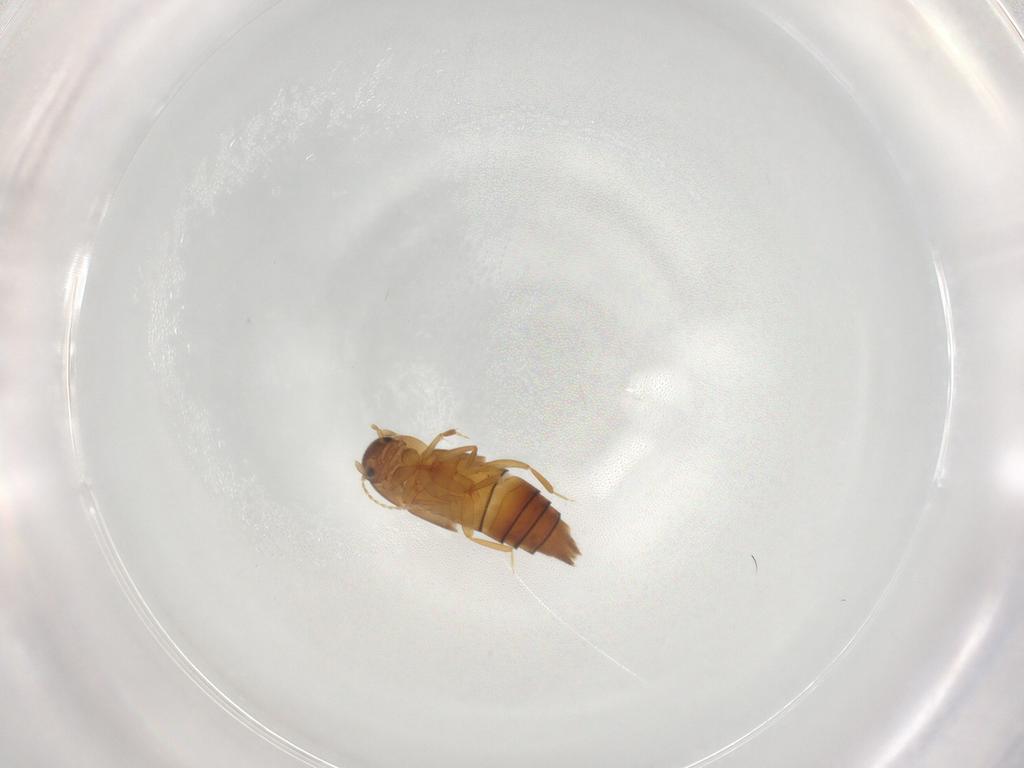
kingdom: Animalia
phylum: Arthropoda
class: Insecta
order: Coleoptera
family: Staphylinidae
